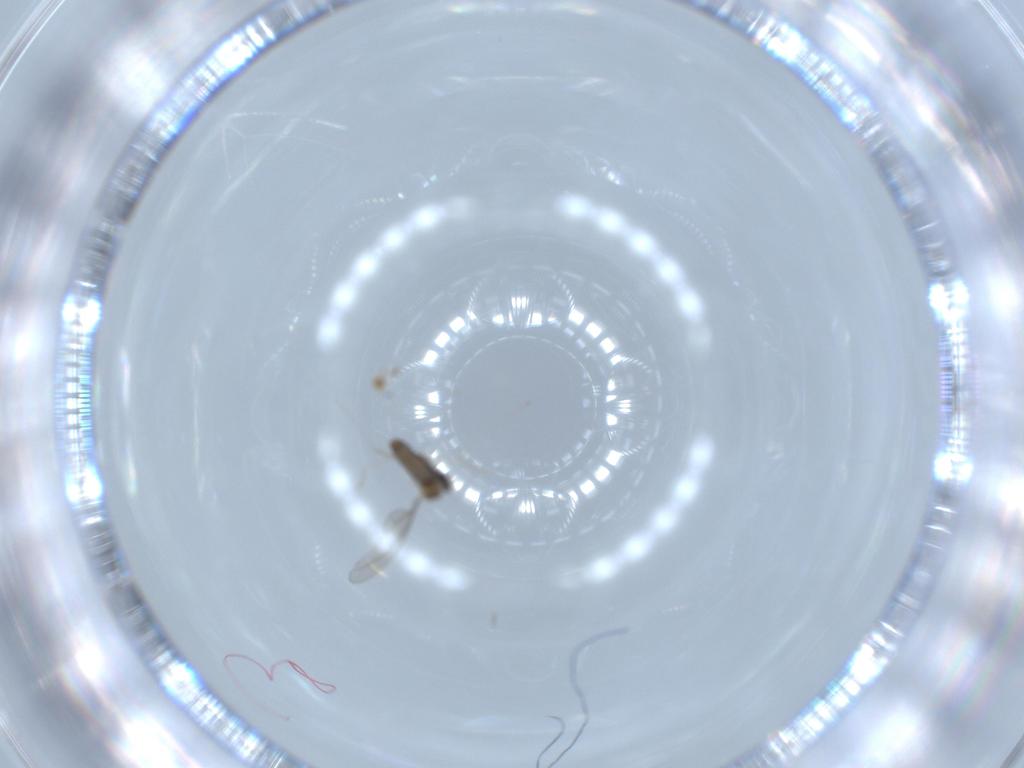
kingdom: Animalia
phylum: Arthropoda
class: Insecta
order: Diptera
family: Cecidomyiidae
